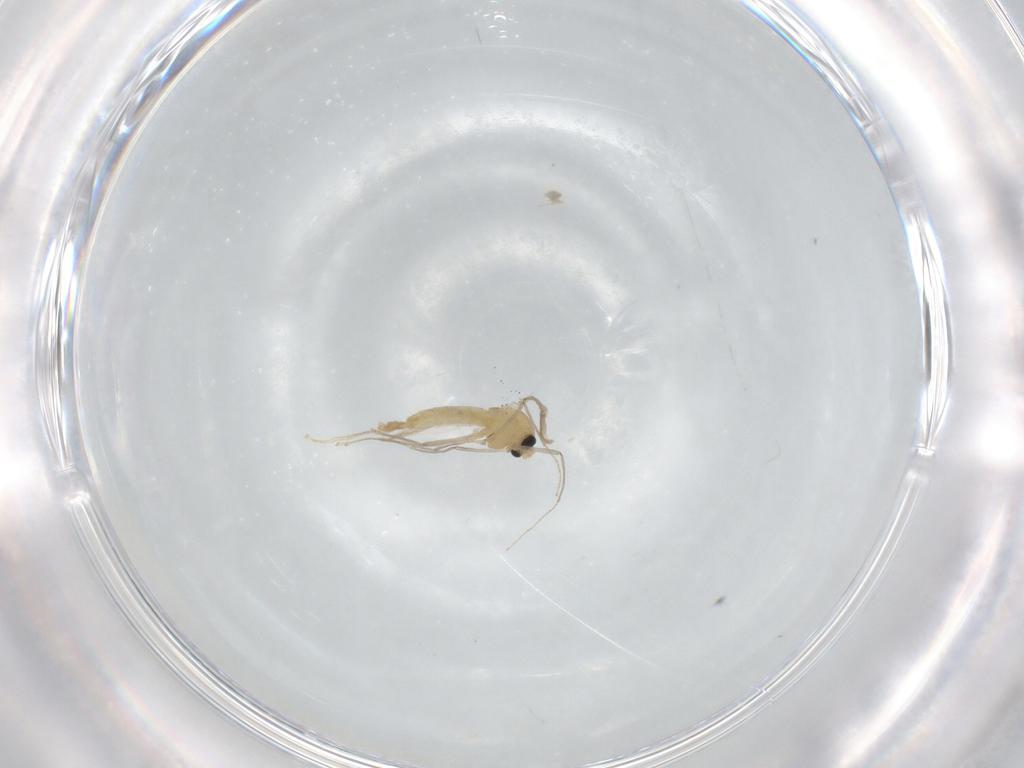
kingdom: Animalia
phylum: Arthropoda
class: Insecta
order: Diptera
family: Chironomidae
